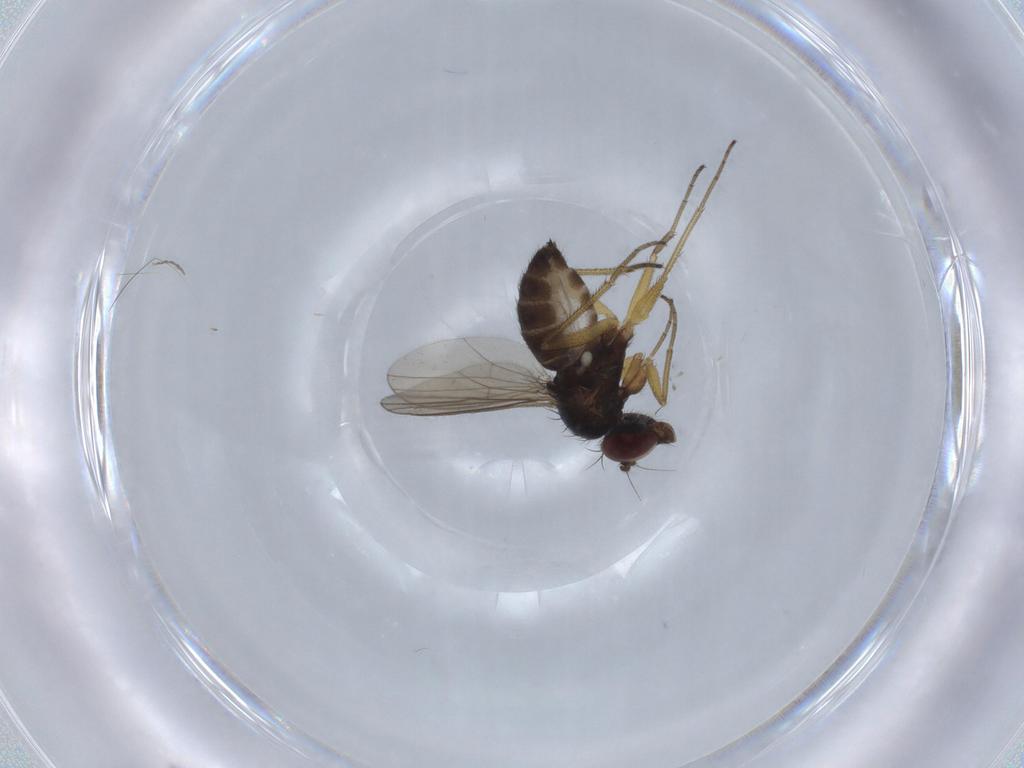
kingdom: Animalia
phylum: Arthropoda
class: Insecta
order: Diptera
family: Dolichopodidae
